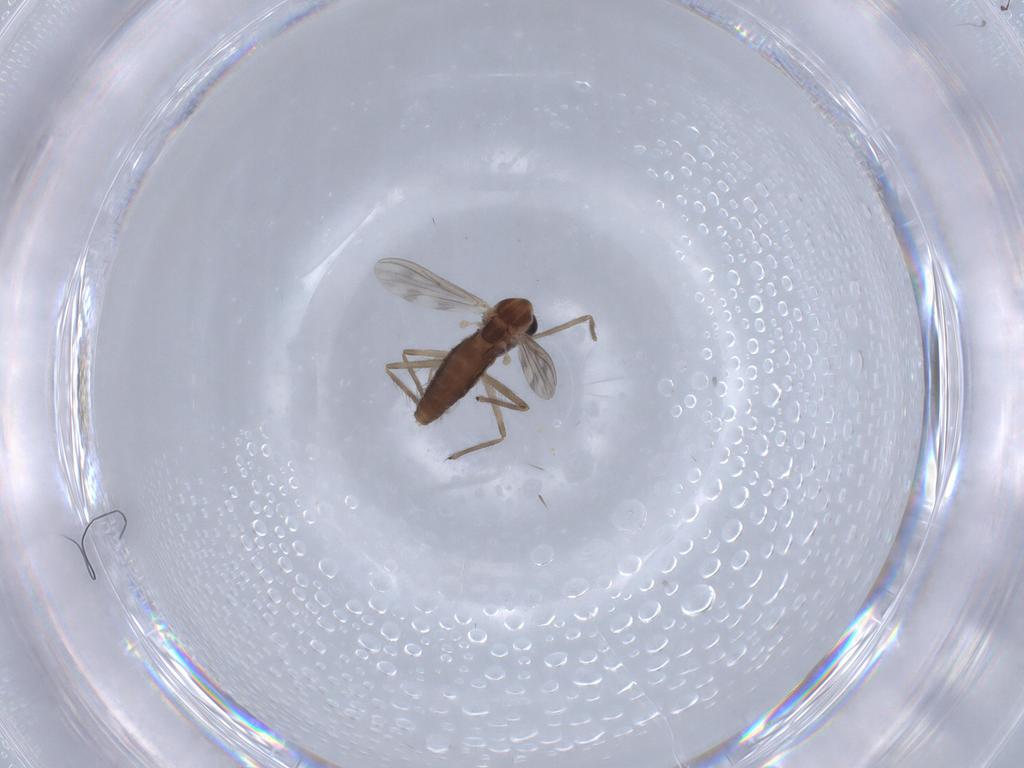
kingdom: Animalia
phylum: Arthropoda
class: Insecta
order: Diptera
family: Chironomidae
